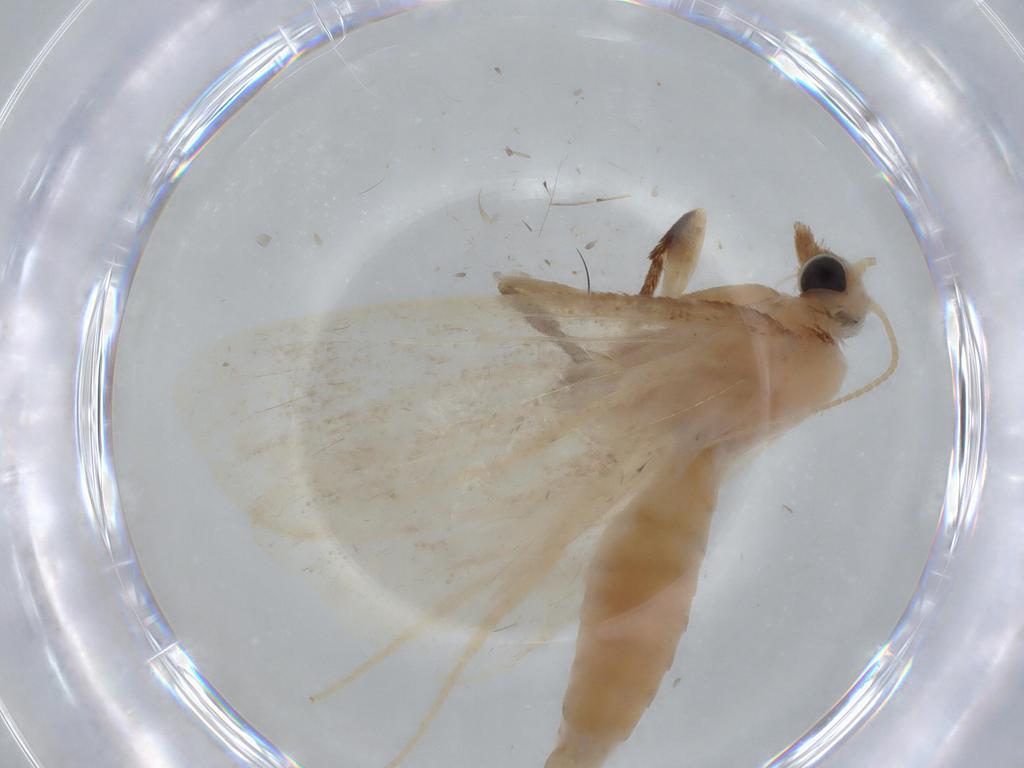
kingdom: Animalia
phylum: Arthropoda
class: Insecta
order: Lepidoptera
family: Crambidae
